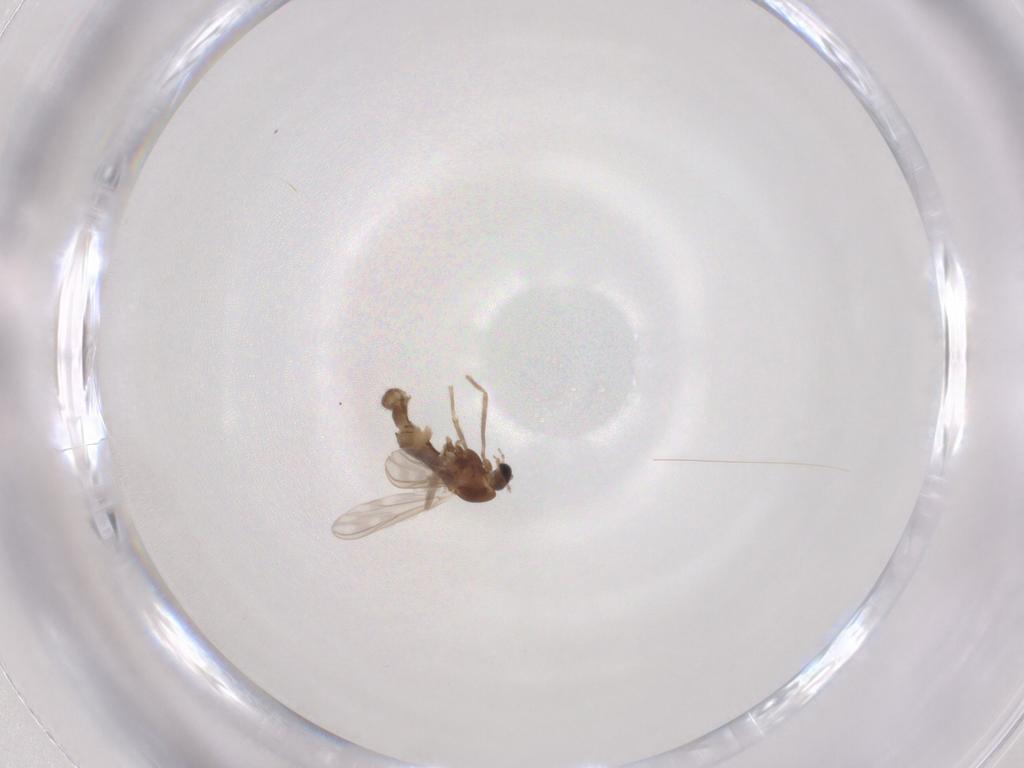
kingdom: Animalia
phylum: Arthropoda
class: Insecta
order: Diptera
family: Chironomidae
